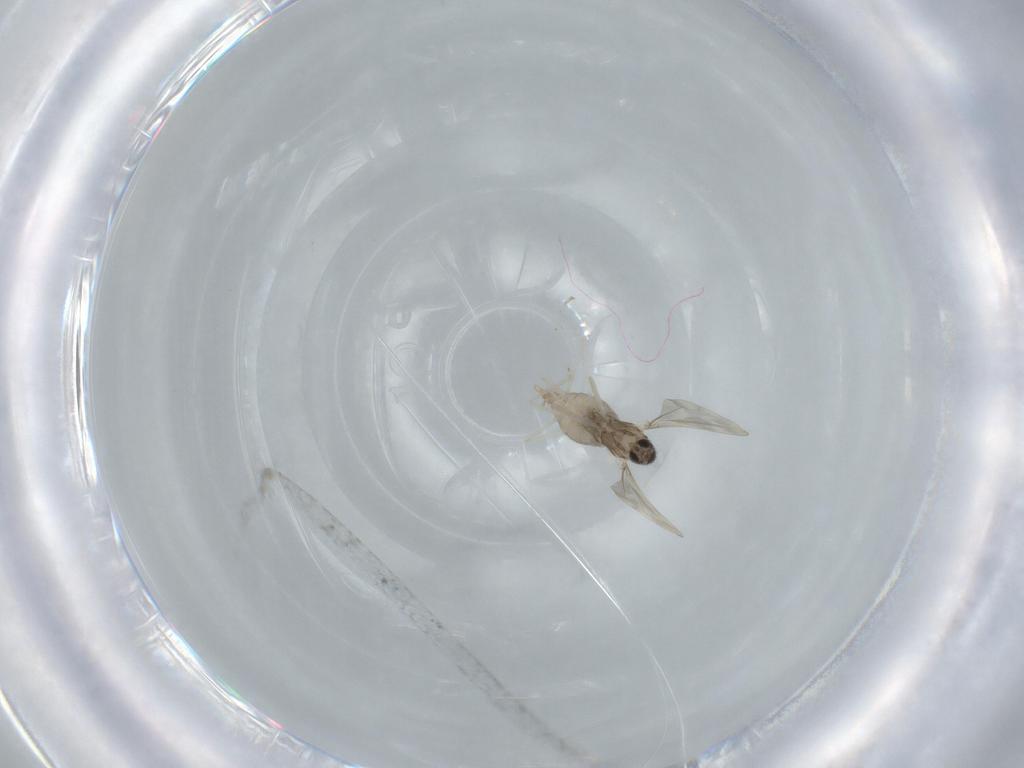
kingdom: Animalia
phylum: Arthropoda
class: Insecta
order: Diptera
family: Cecidomyiidae
